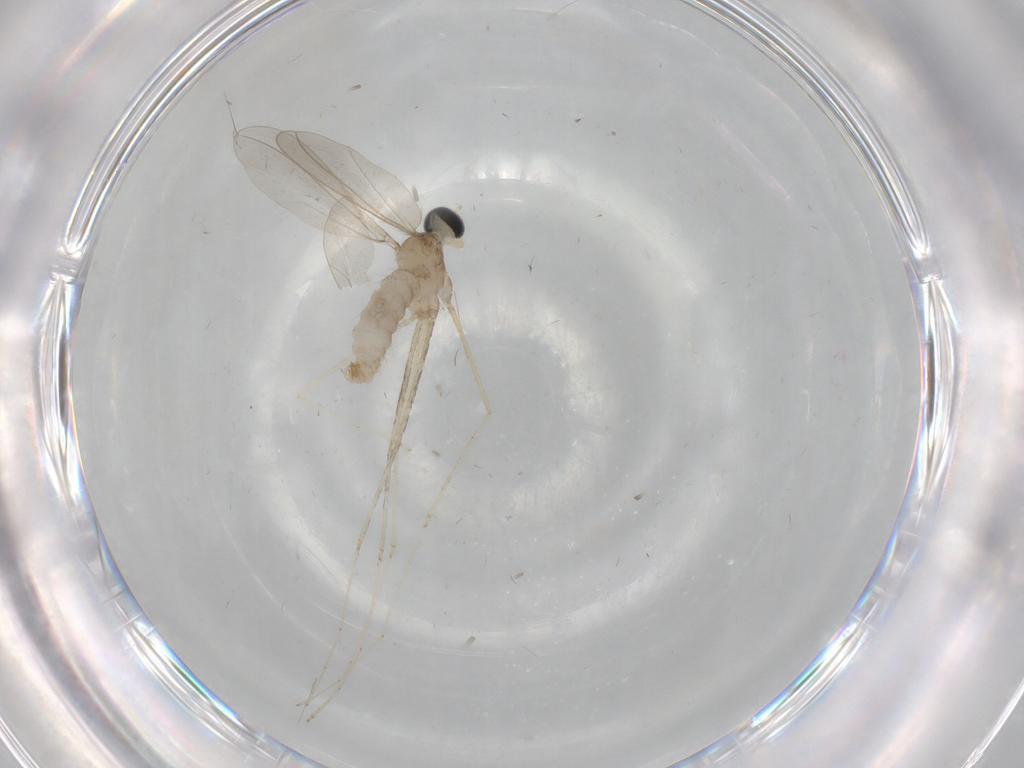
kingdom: Animalia
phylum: Arthropoda
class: Insecta
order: Diptera
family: Cecidomyiidae
